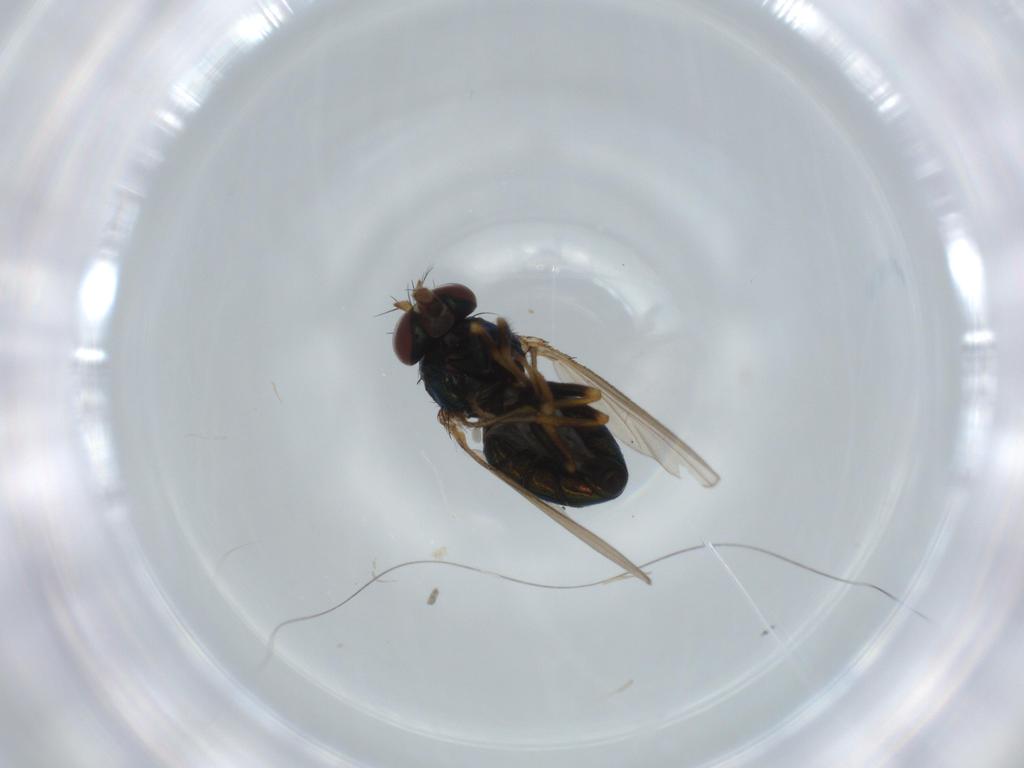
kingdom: Animalia
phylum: Arthropoda
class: Insecta
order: Diptera
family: Ephydridae
